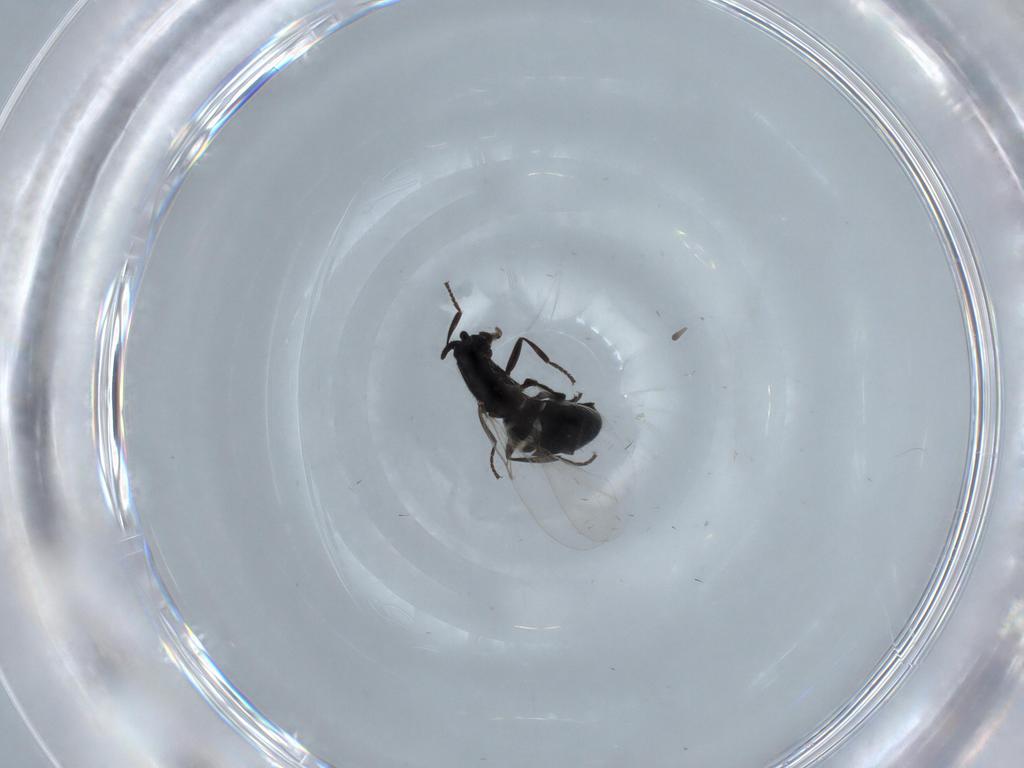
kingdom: Animalia
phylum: Arthropoda
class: Insecta
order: Diptera
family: Scatopsidae
